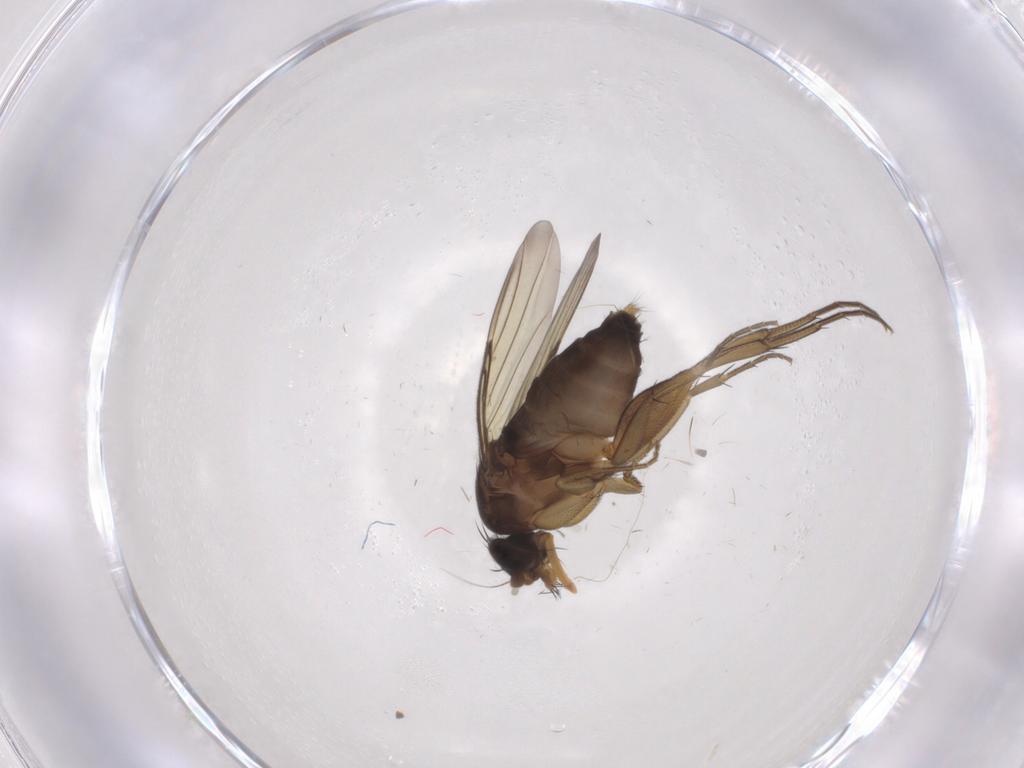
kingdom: Animalia
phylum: Arthropoda
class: Insecta
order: Diptera
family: Phoridae
